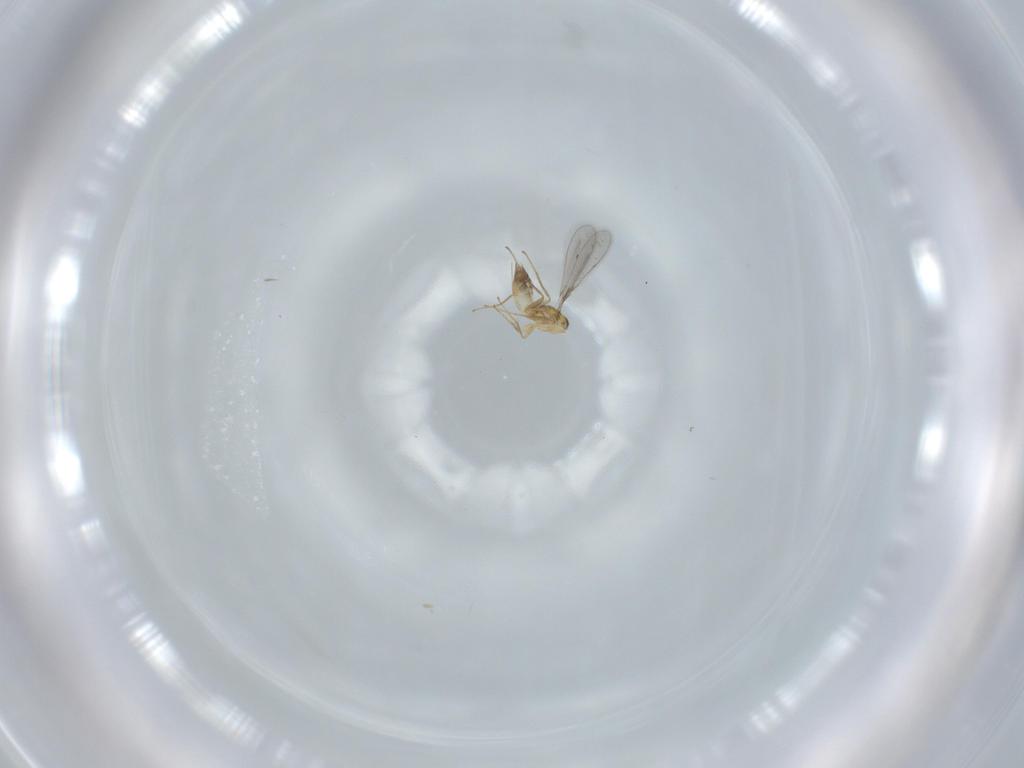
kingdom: Animalia
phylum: Arthropoda
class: Insecta
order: Hymenoptera
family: Mymaridae
